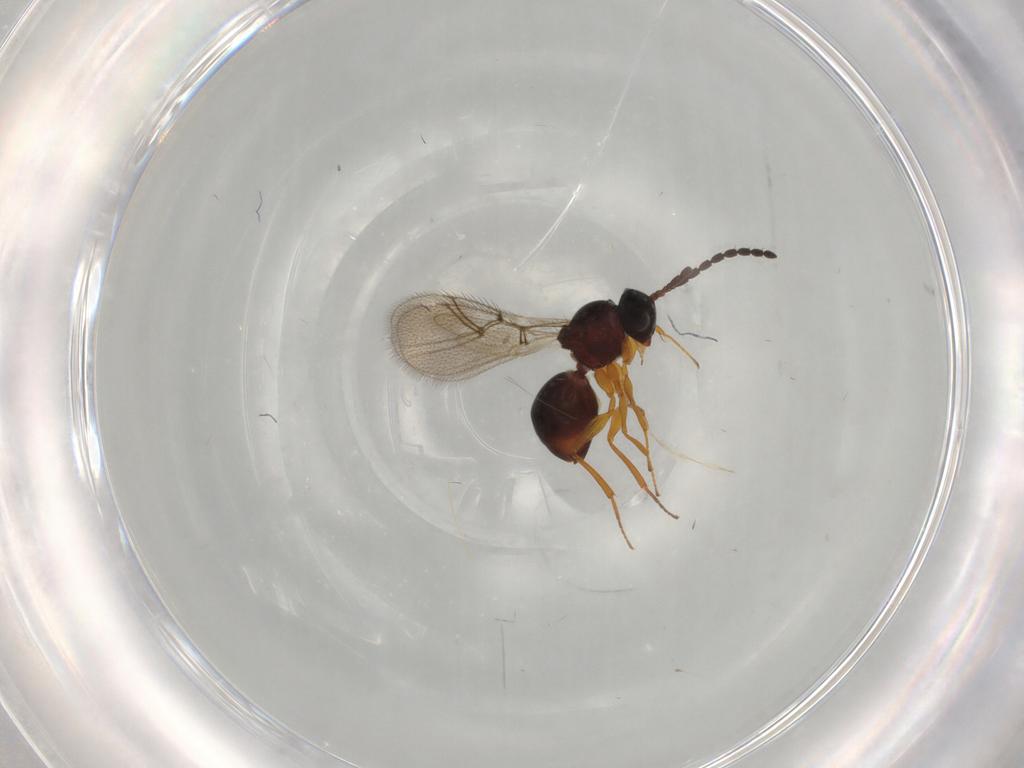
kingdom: Animalia
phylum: Arthropoda
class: Insecta
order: Hymenoptera
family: Figitidae
